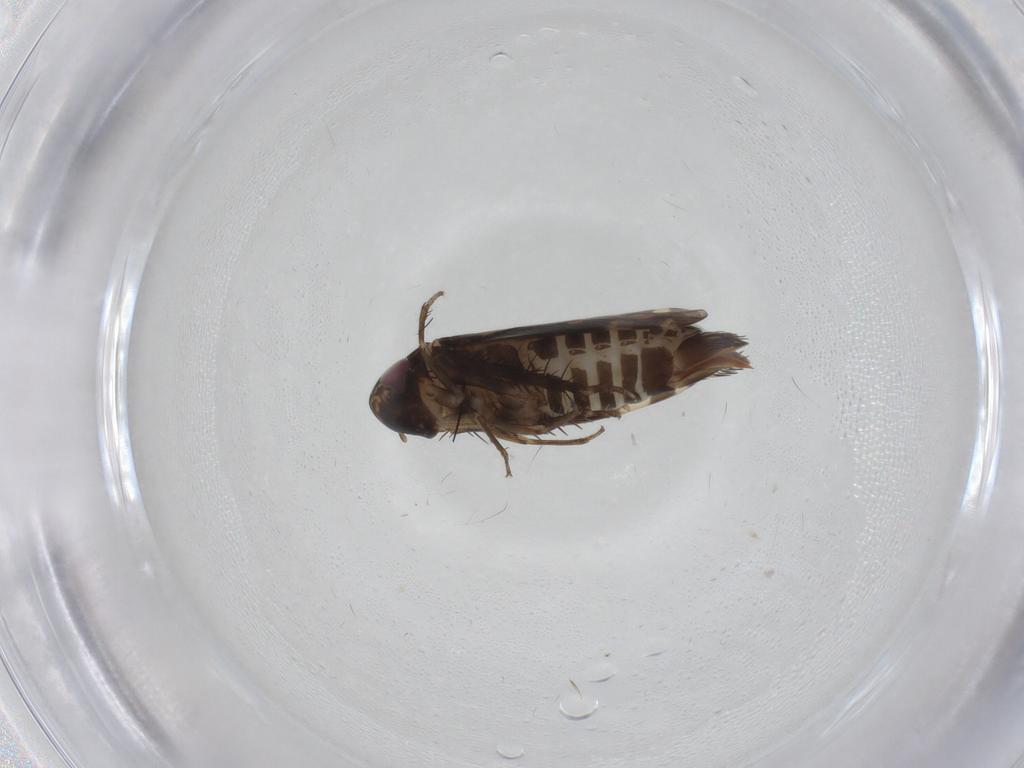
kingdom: Animalia
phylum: Arthropoda
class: Insecta
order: Hemiptera
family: Cicadellidae
